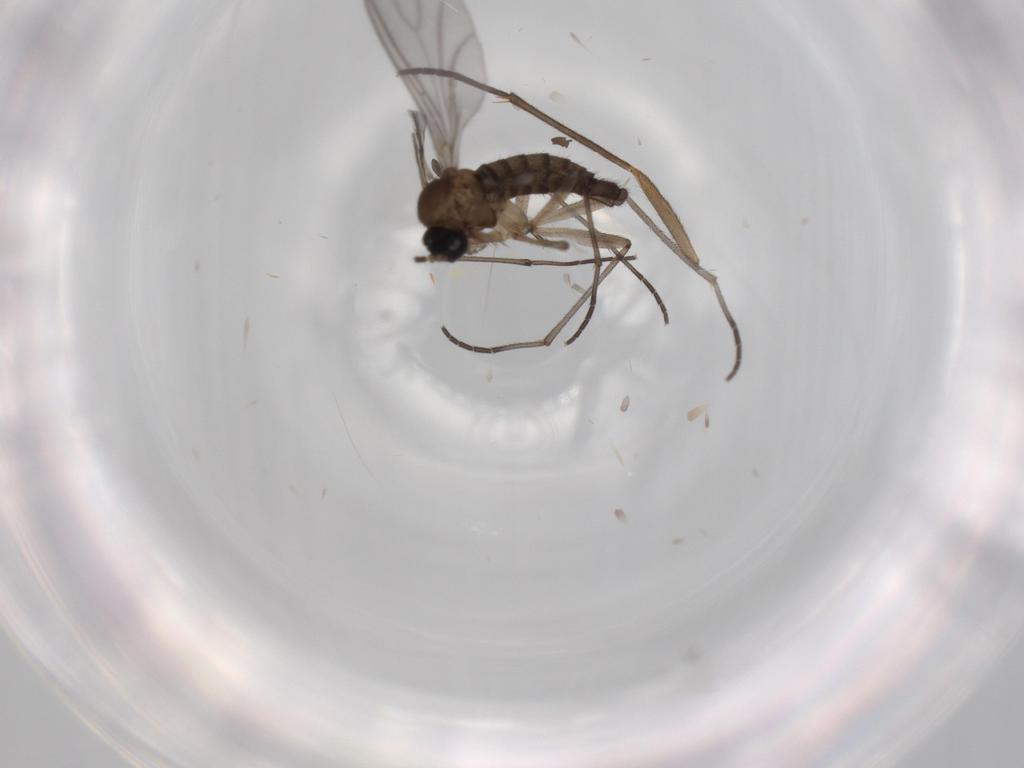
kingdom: Animalia
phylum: Arthropoda
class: Insecta
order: Diptera
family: Sciaridae
